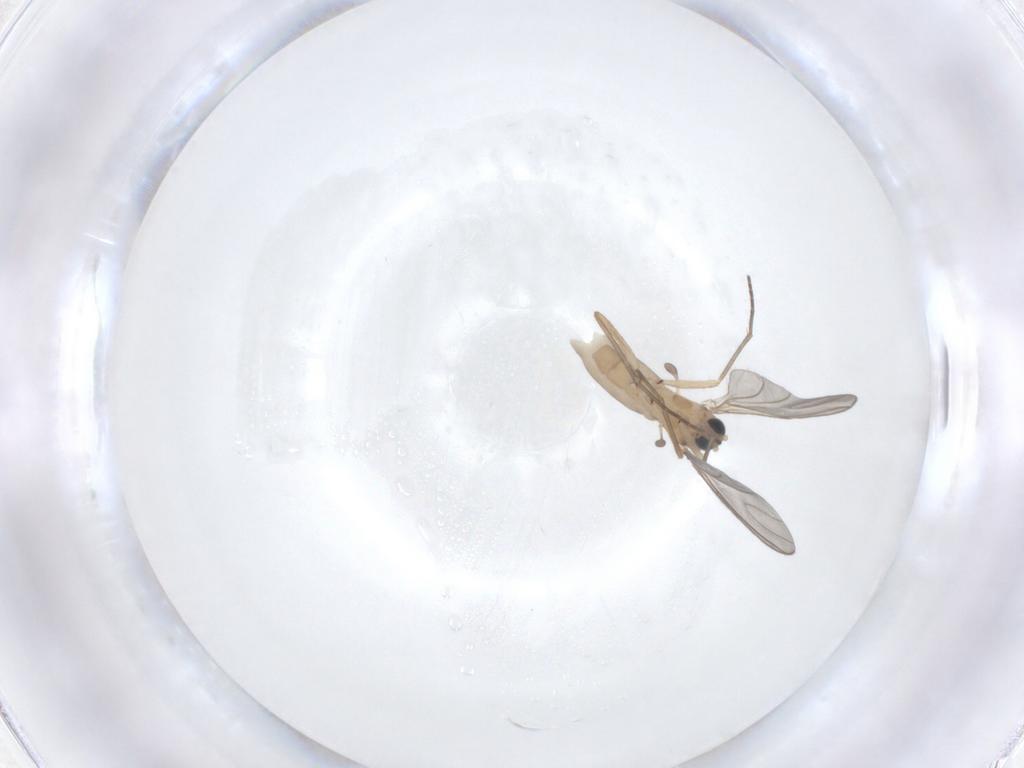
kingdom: Animalia
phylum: Arthropoda
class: Insecta
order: Diptera
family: Sciaridae
